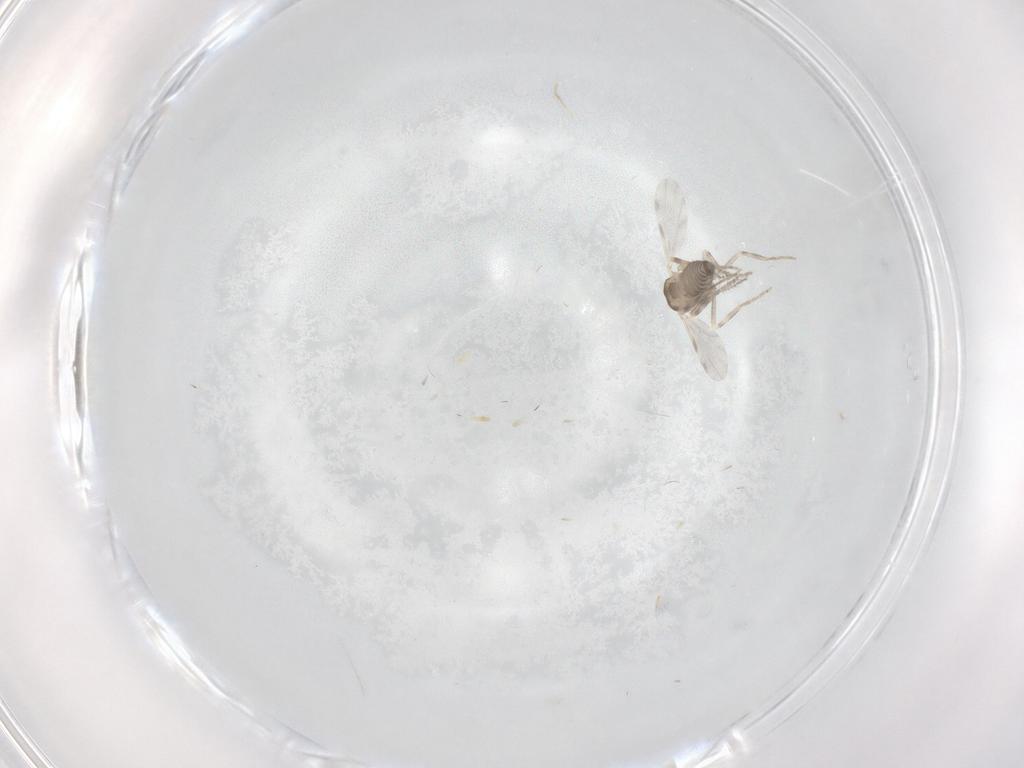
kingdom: Animalia
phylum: Arthropoda
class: Insecta
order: Diptera
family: Ceratopogonidae
